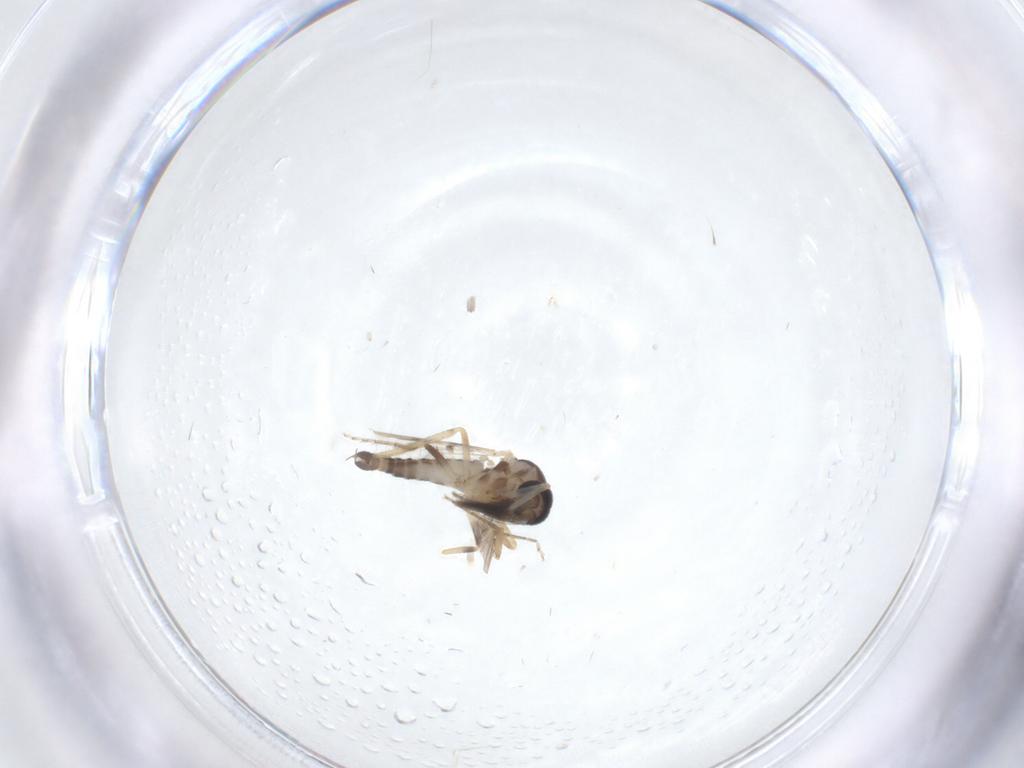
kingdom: Animalia
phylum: Arthropoda
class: Insecta
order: Diptera
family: Ceratopogonidae
